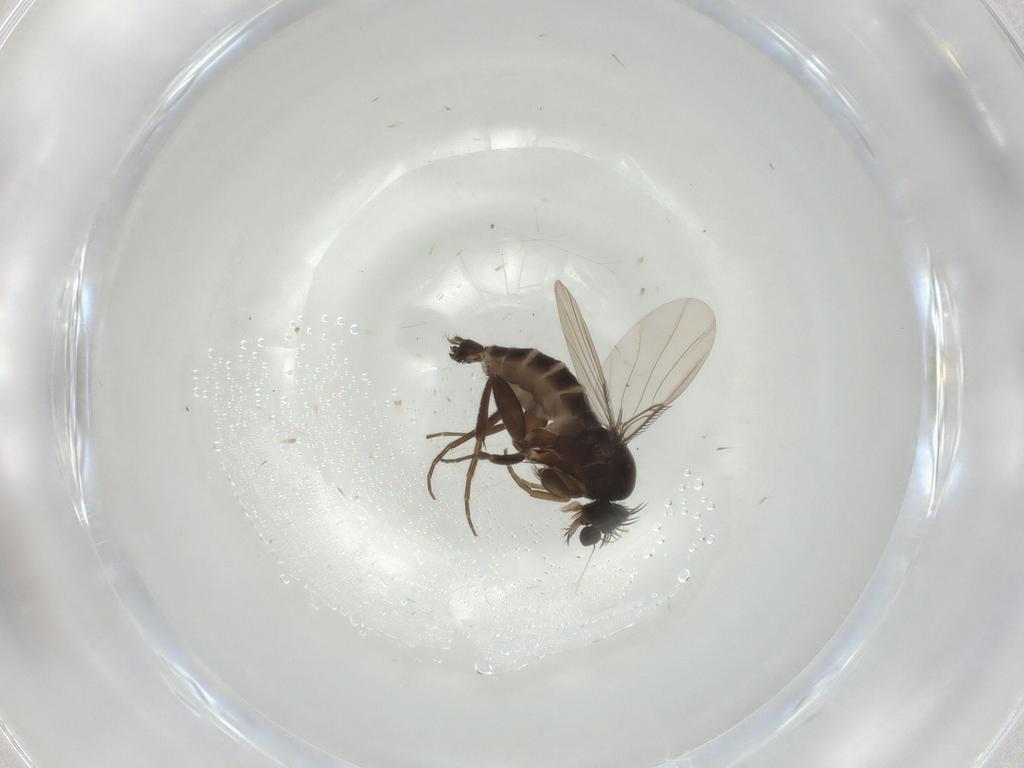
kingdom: Animalia
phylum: Arthropoda
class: Insecta
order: Diptera
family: Phoridae
